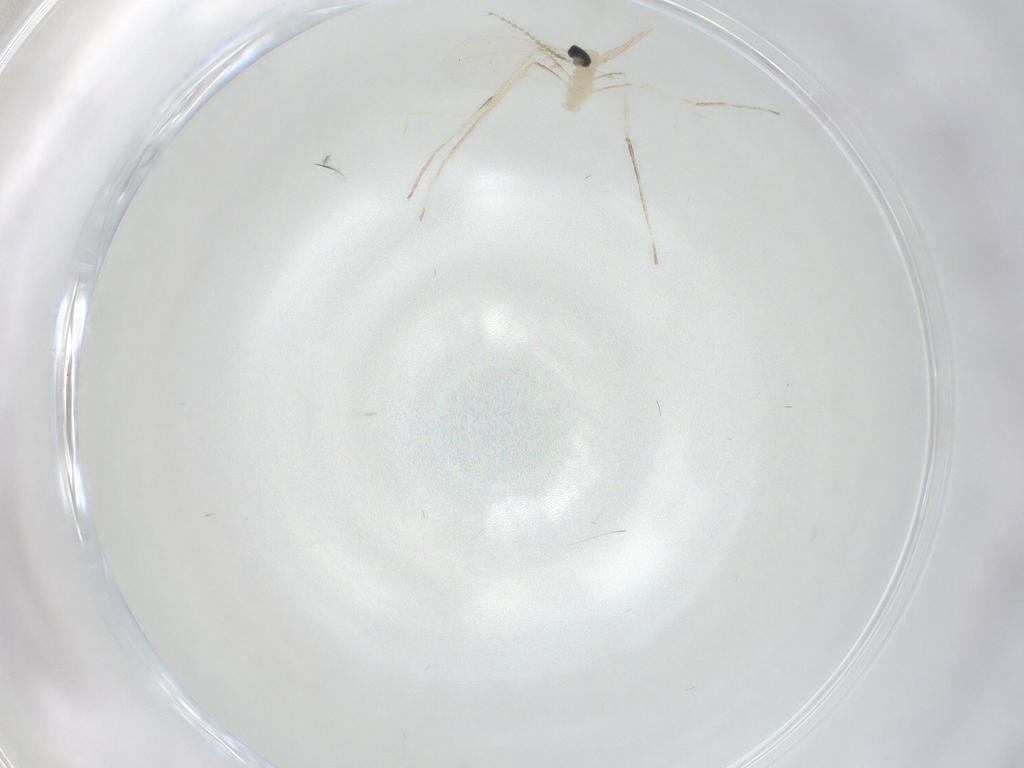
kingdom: Animalia
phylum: Arthropoda
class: Insecta
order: Diptera
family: Cecidomyiidae
